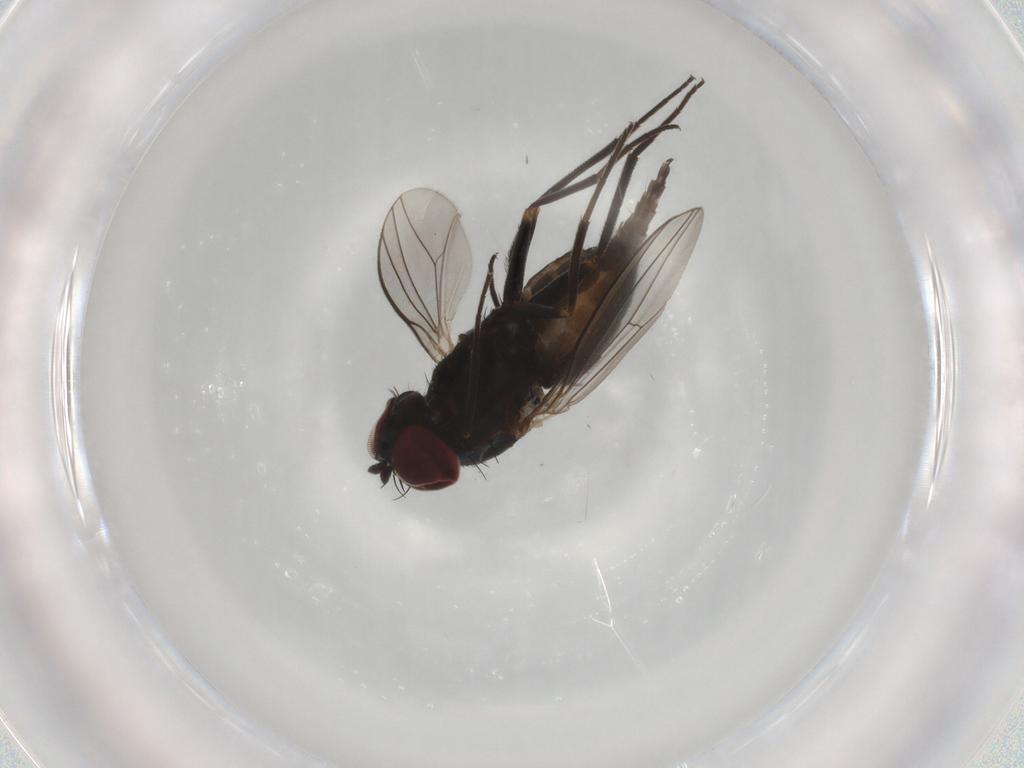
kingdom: Animalia
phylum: Arthropoda
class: Insecta
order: Diptera
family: Dolichopodidae
